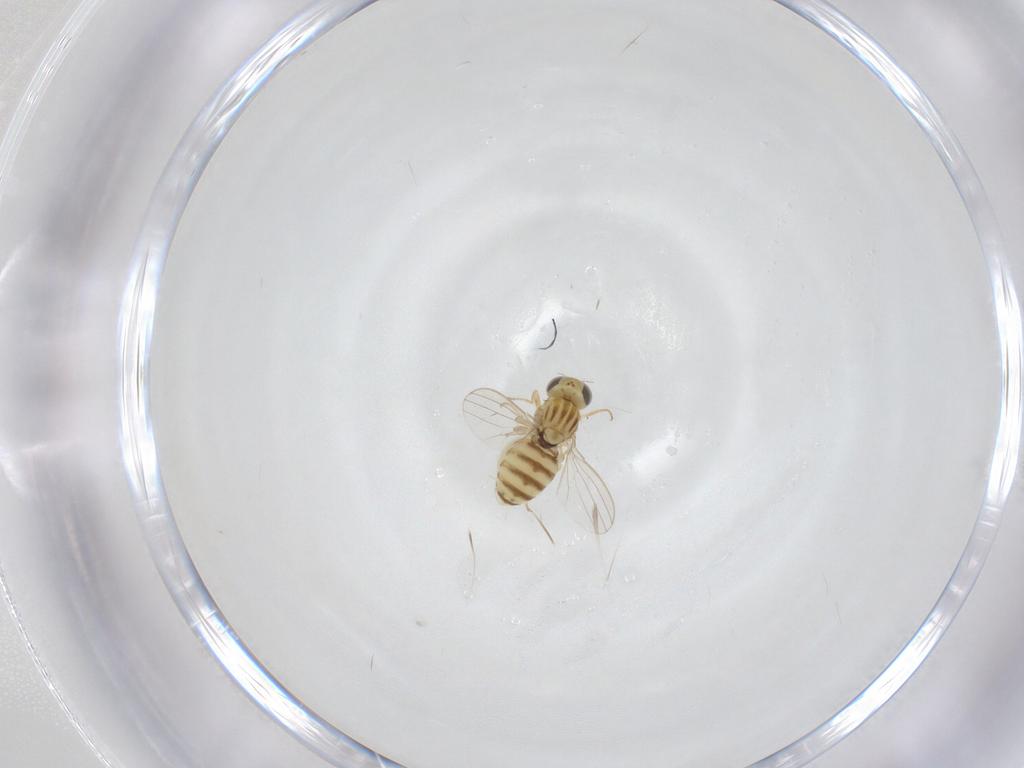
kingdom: Animalia
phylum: Arthropoda
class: Insecta
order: Diptera
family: Chyromyidae
